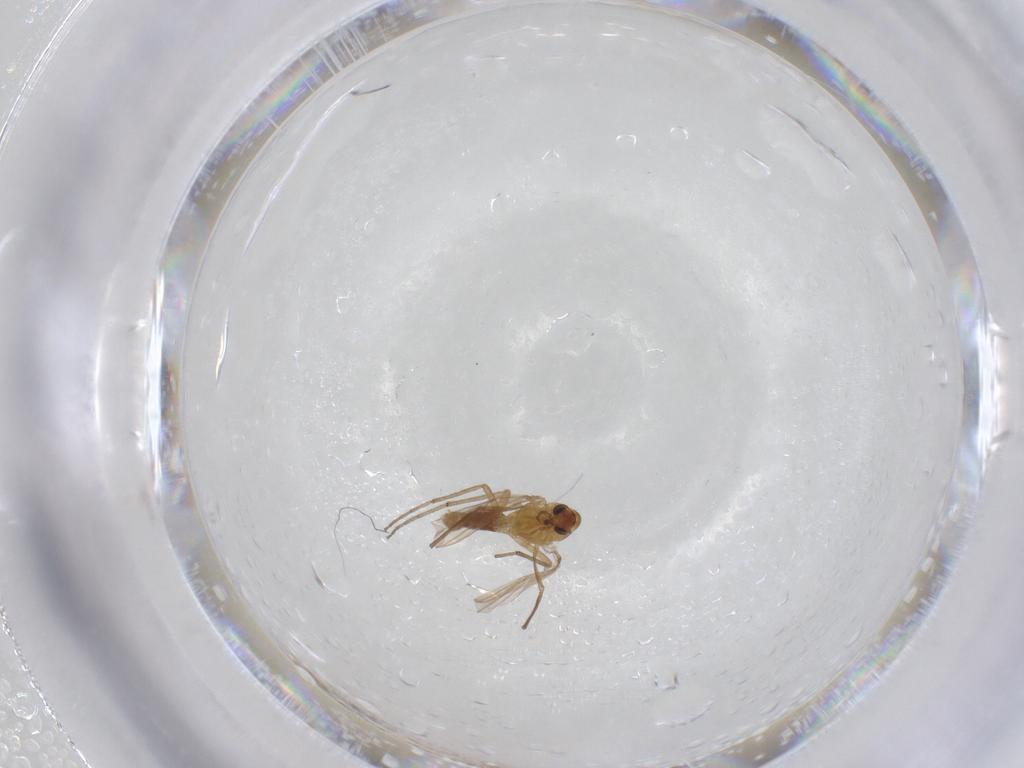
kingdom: Animalia
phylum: Arthropoda
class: Insecta
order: Diptera
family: Chironomidae
